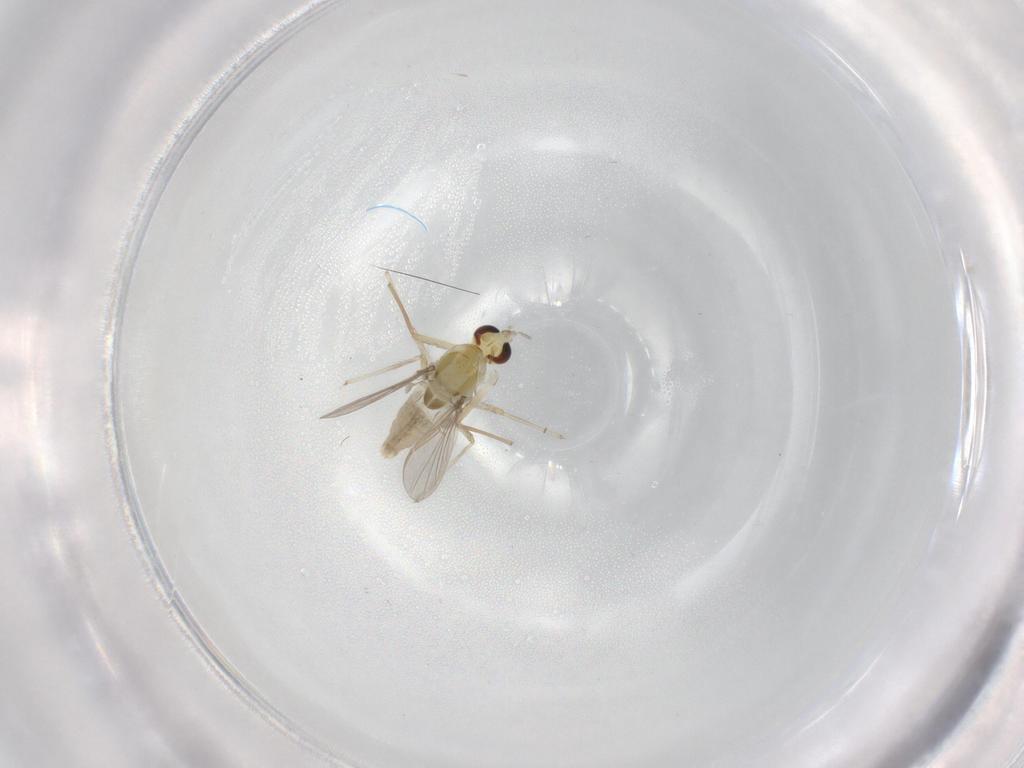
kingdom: Animalia
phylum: Arthropoda
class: Insecta
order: Diptera
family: Chironomidae
